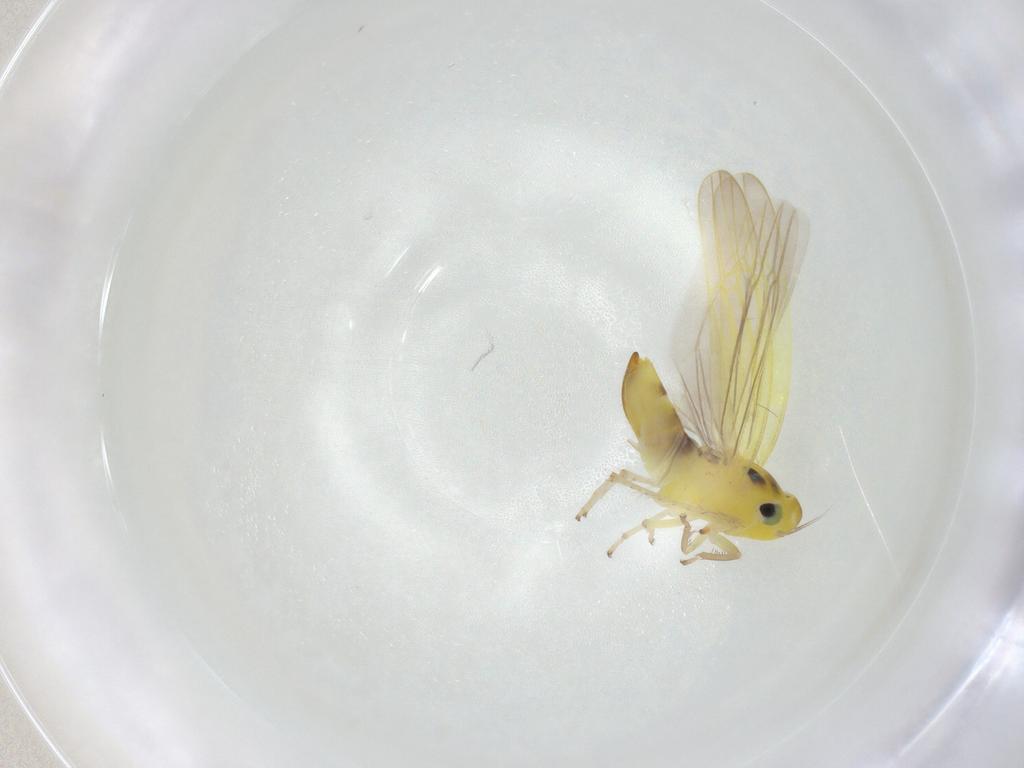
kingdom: Animalia
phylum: Arthropoda
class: Insecta
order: Hemiptera
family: Cicadellidae
